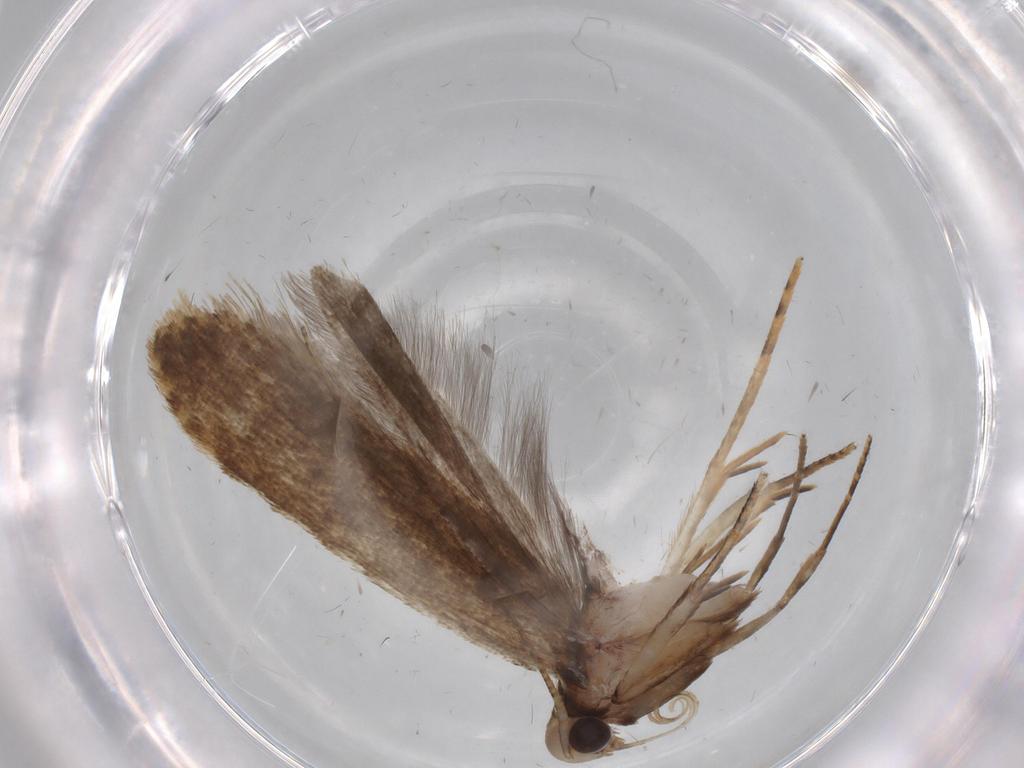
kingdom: Animalia
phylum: Arthropoda
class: Insecta
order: Lepidoptera
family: Gelechiidae
